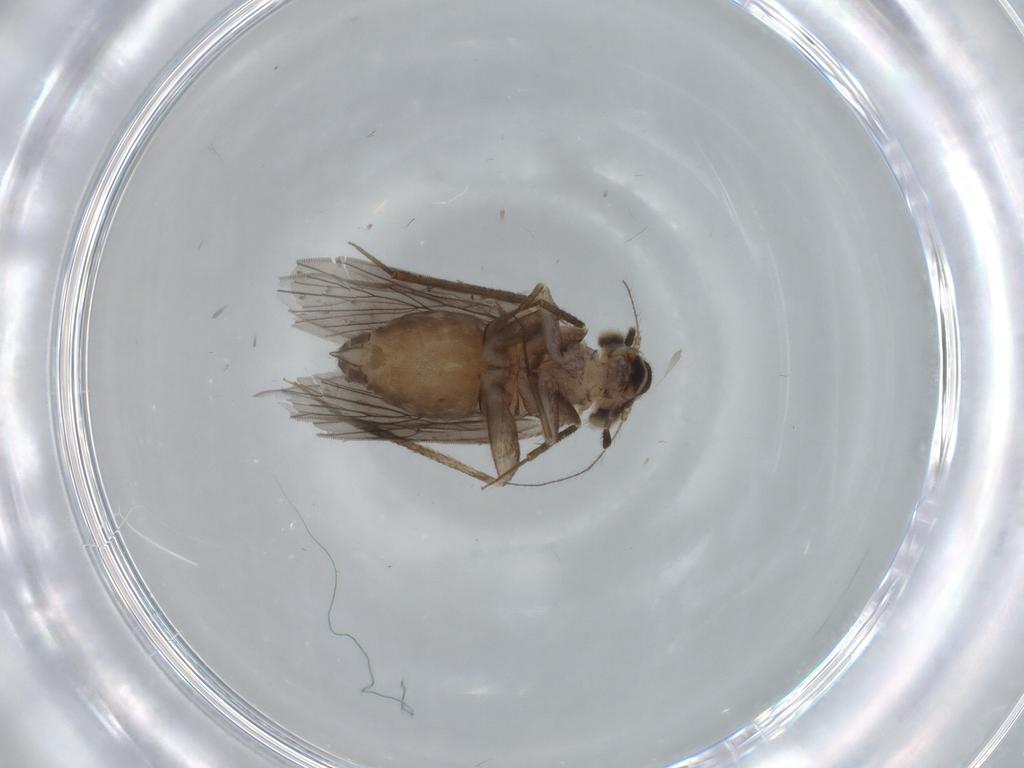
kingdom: Animalia
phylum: Arthropoda
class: Insecta
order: Psocodea
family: Lepidopsocidae
